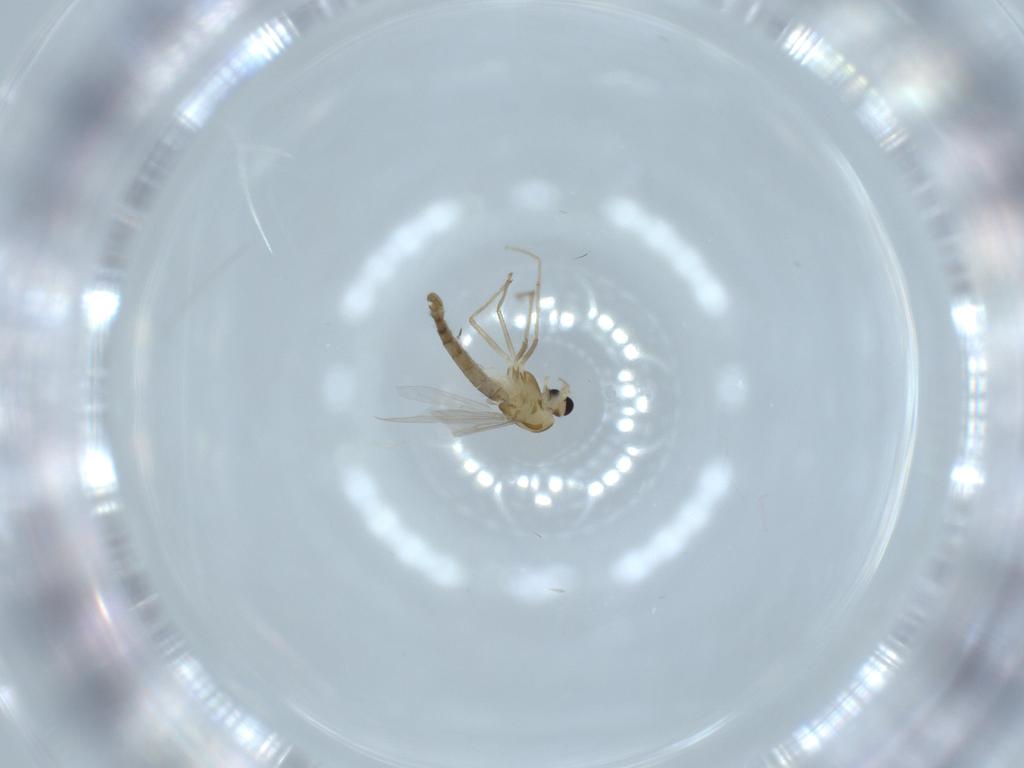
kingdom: Animalia
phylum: Arthropoda
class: Insecta
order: Diptera
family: Chironomidae
